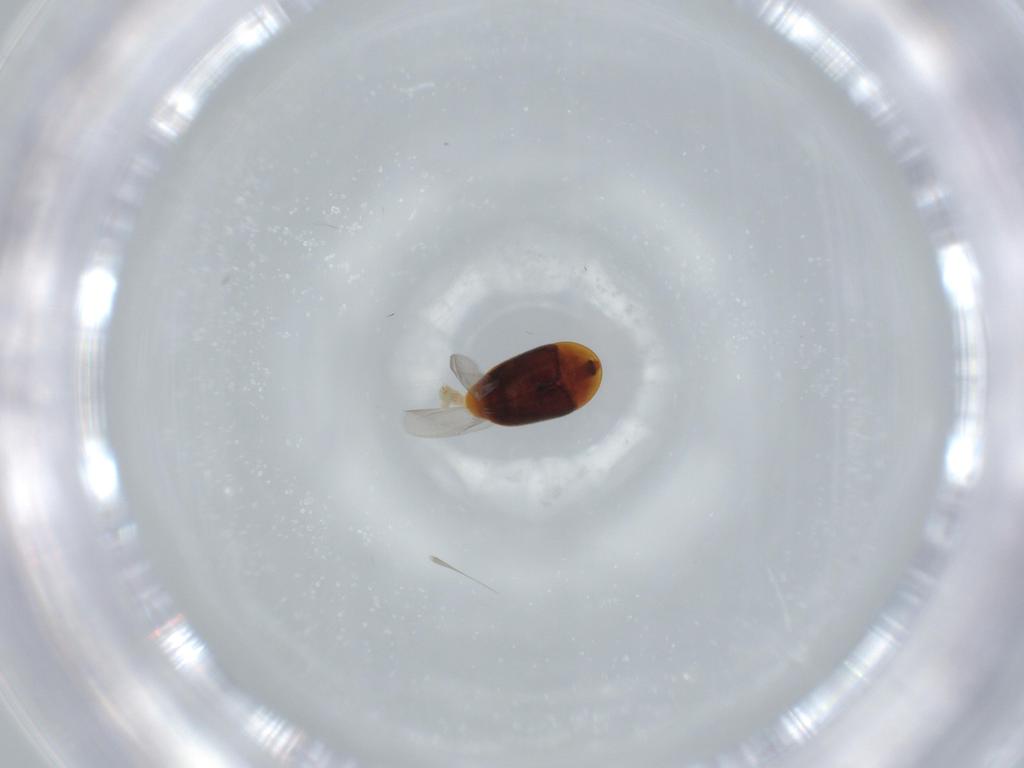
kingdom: Animalia
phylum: Arthropoda
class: Insecta
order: Coleoptera
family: Corylophidae
